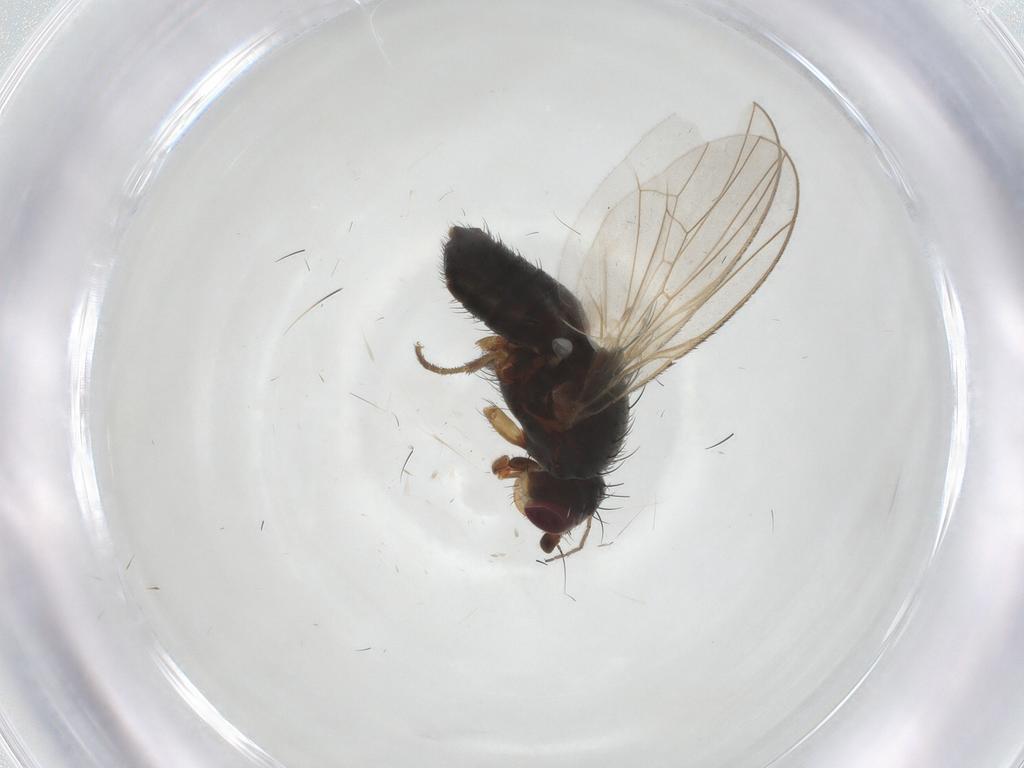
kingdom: Animalia
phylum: Arthropoda
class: Insecta
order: Diptera
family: Heleomyzidae
